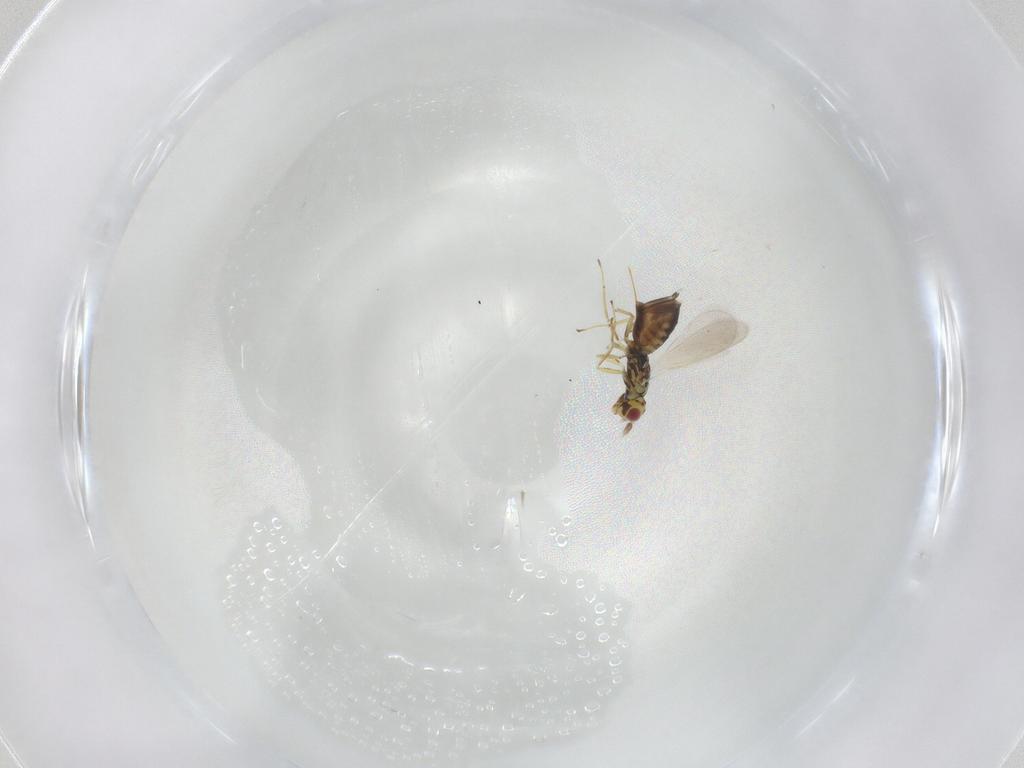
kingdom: Animalia
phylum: Arthropoda
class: Insecta
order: Hymenoptera
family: Eulophidae
